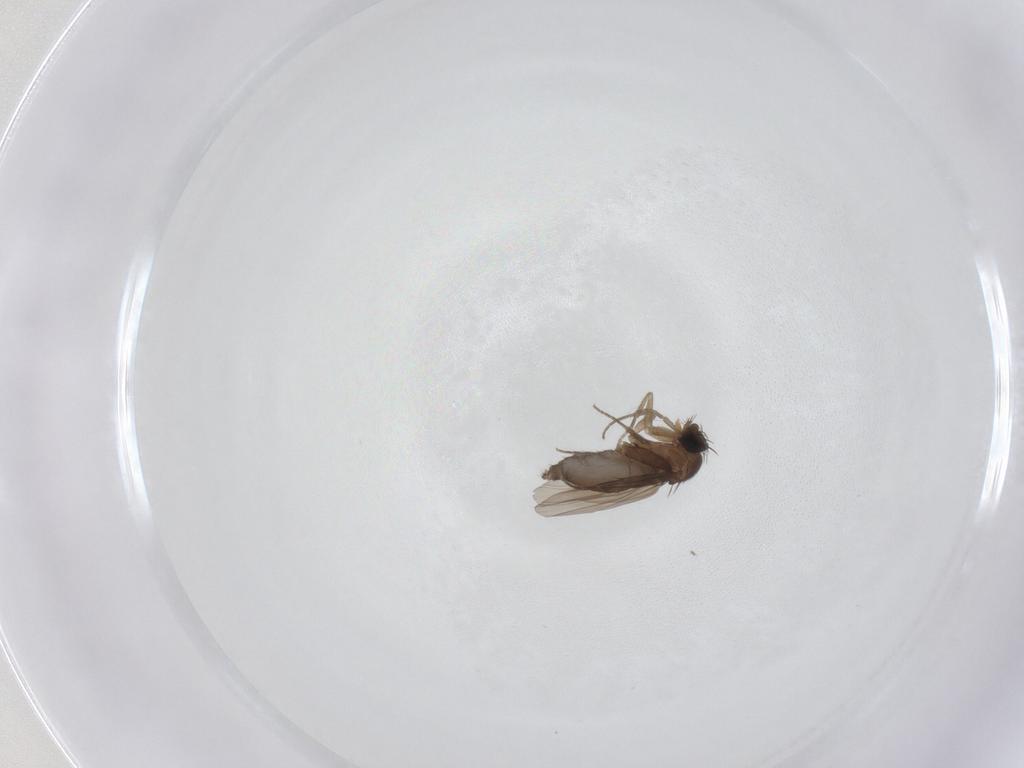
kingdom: Animalia
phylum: Arthropoda
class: Insecta
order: Diptera
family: Phoridae
